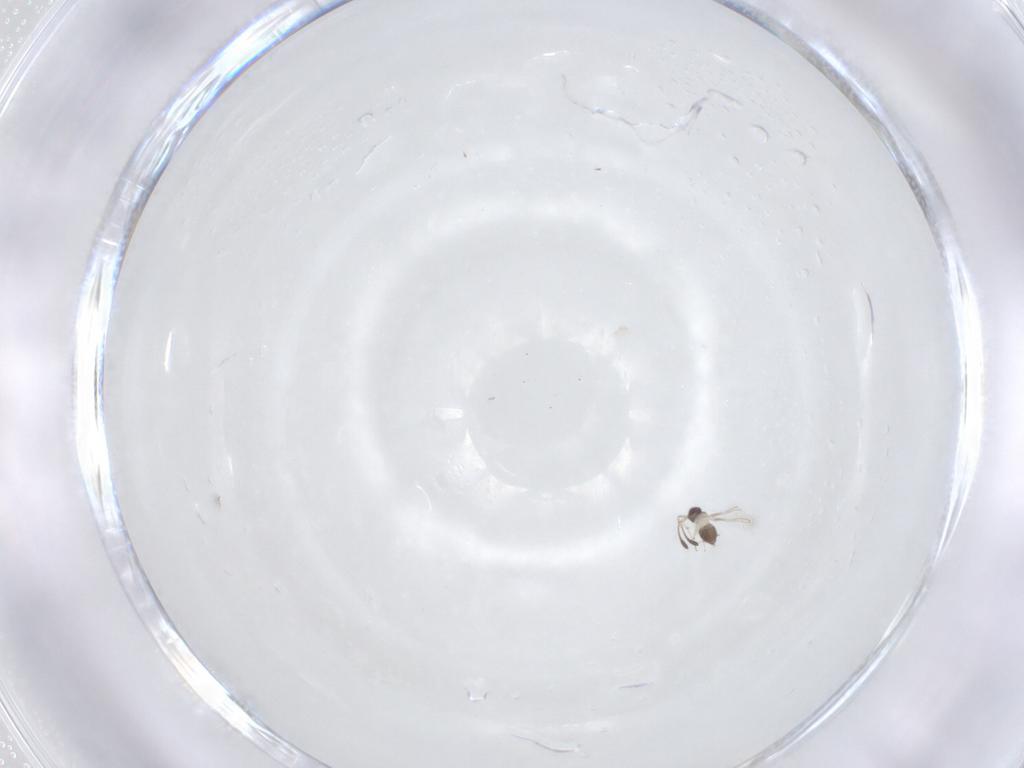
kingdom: Animalia
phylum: Arthropoda
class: Insecta
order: Hymenoptera
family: Mymaridae
